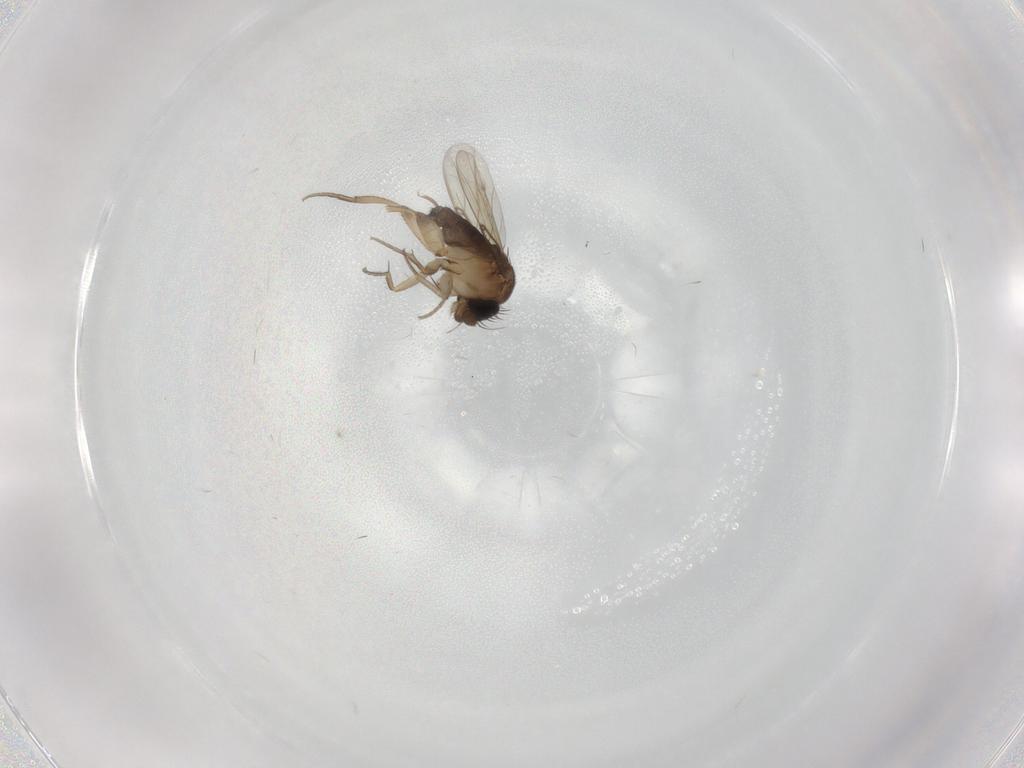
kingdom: Animalia
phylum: Arthropoda
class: Insecta
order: Diptera
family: Phoridae
